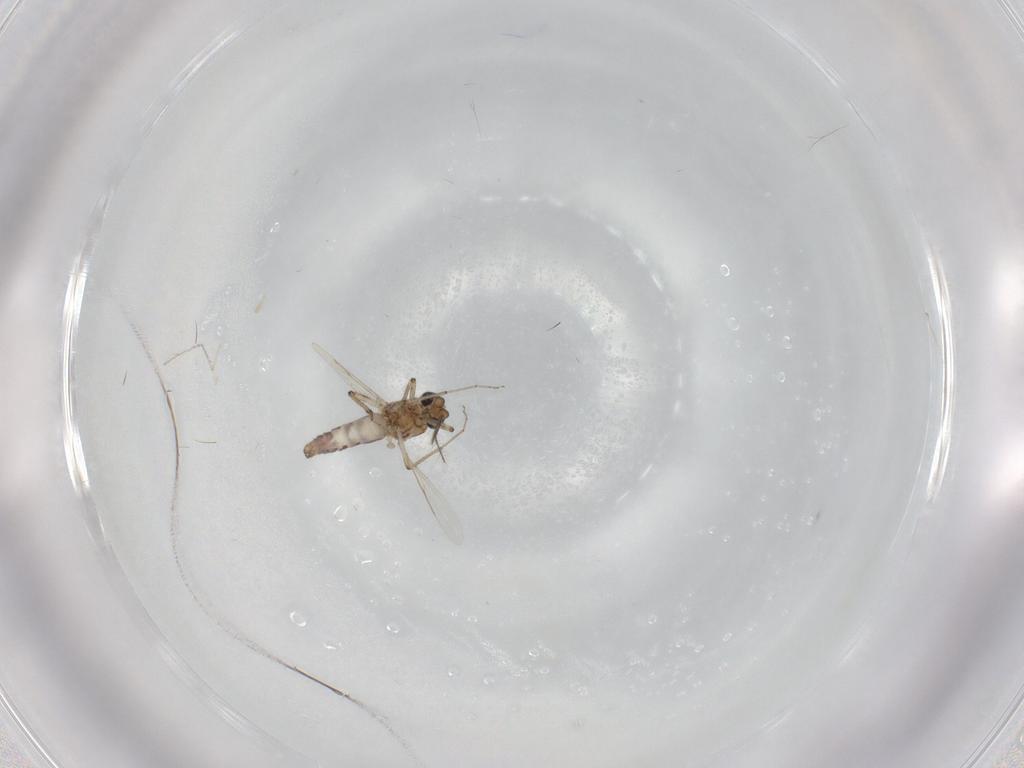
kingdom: Animalia
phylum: Arthropoda
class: Insecta
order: Diptera
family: Ceratopogonidae
